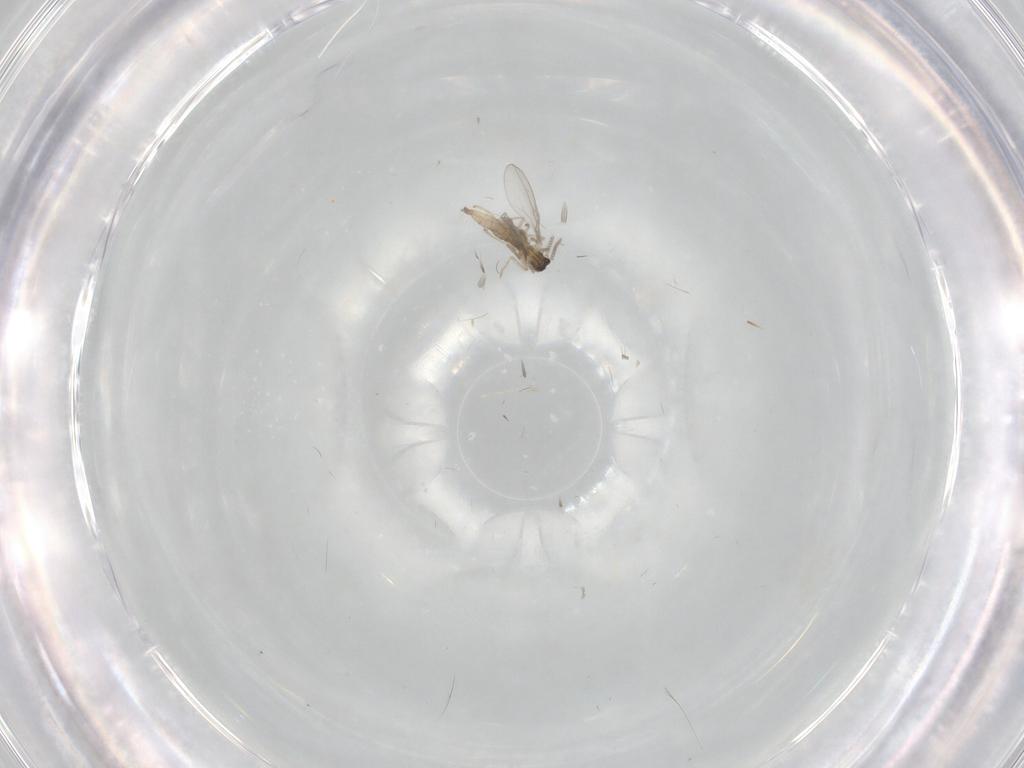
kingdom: Animalia
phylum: Arthropoda
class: Insecta
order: Diptera
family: Cecidomyiidae
